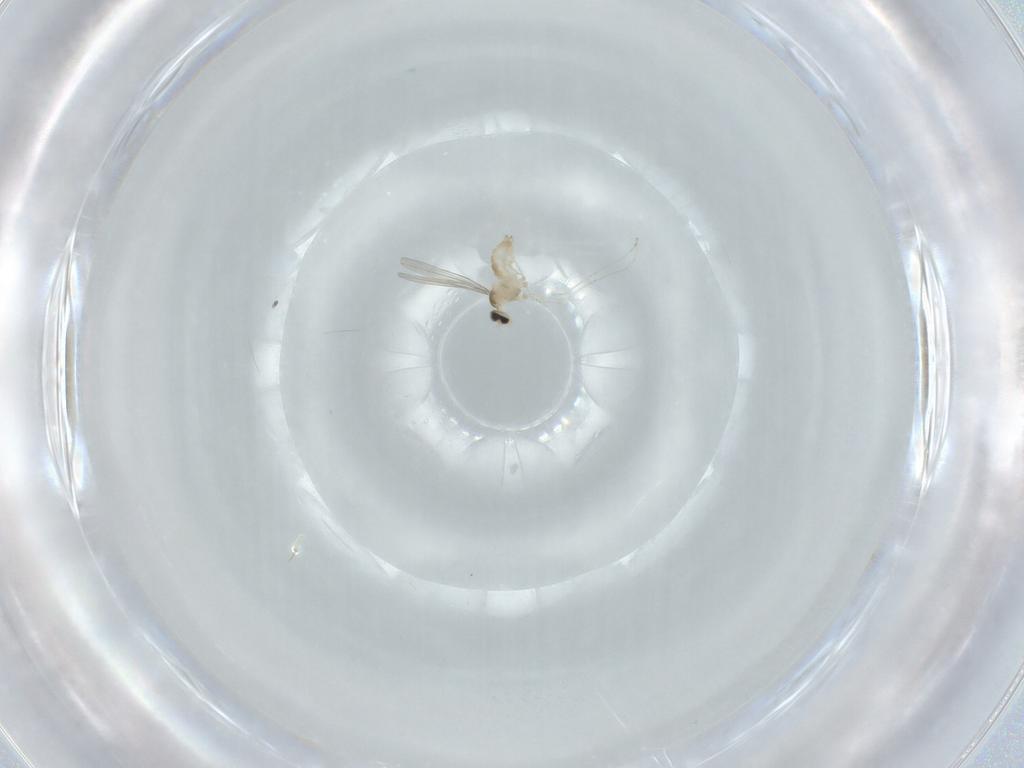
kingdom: Animalia
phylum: Arthropoda
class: Insecta
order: Diptera
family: Cecidomyiidae
